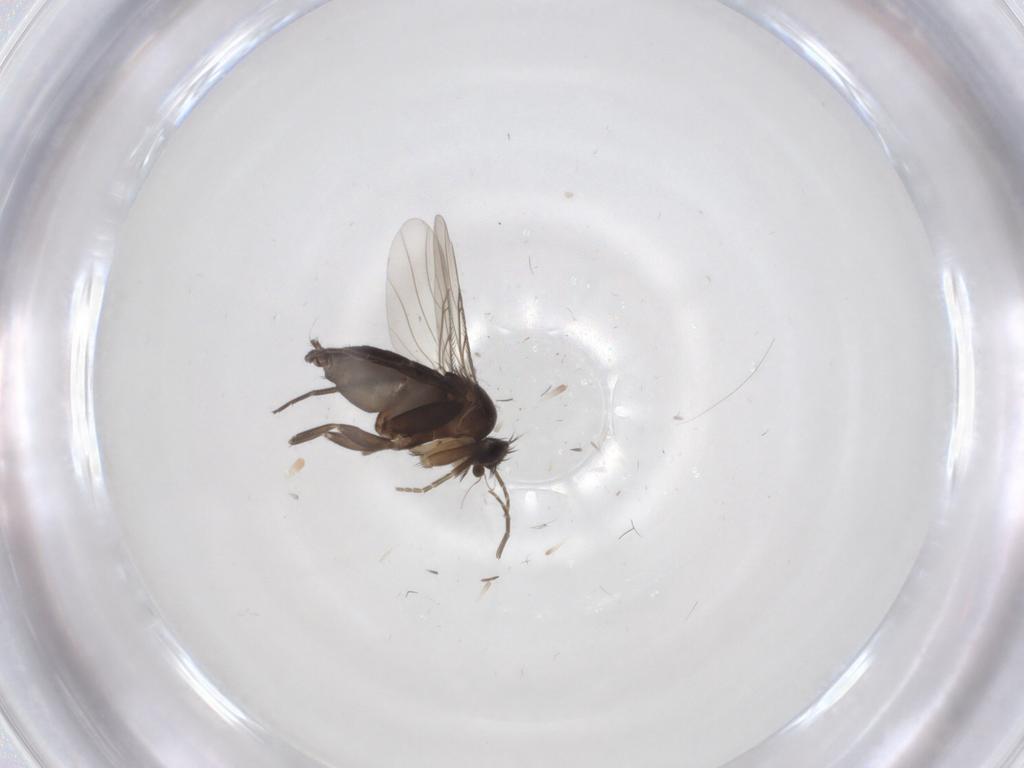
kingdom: Animalia
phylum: Arthropoda
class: Insecta
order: Diptera
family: Phoridae
